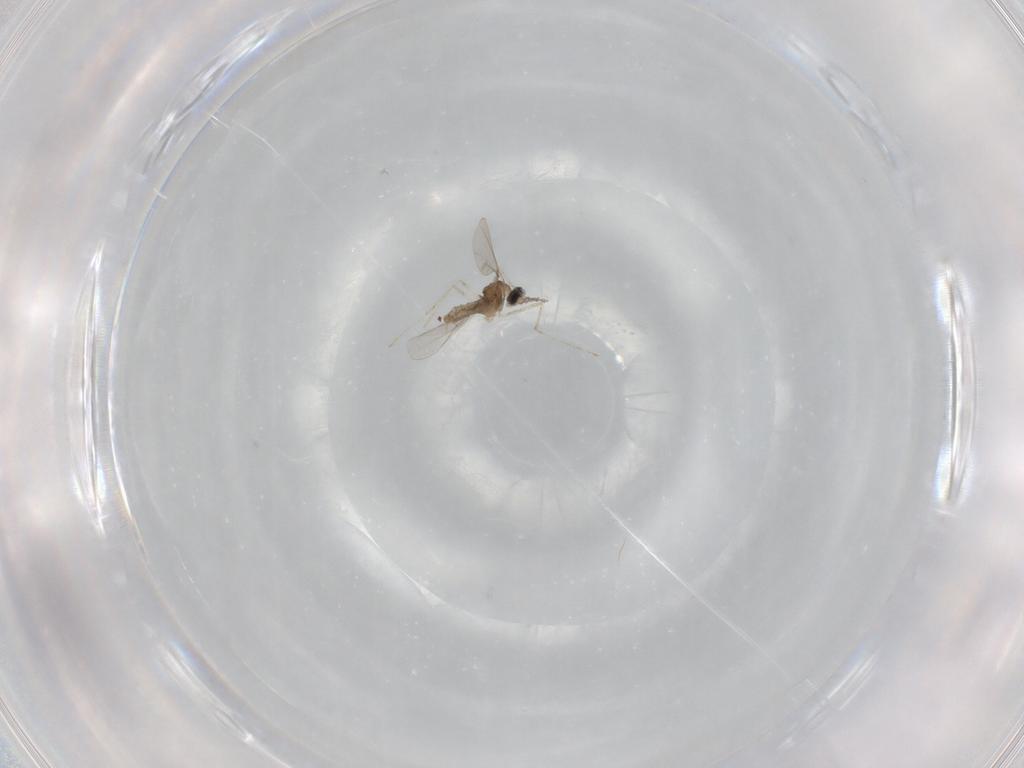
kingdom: Animalia
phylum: Arthropoda
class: Insecta
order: Diptera
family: Cecidomyiidae
